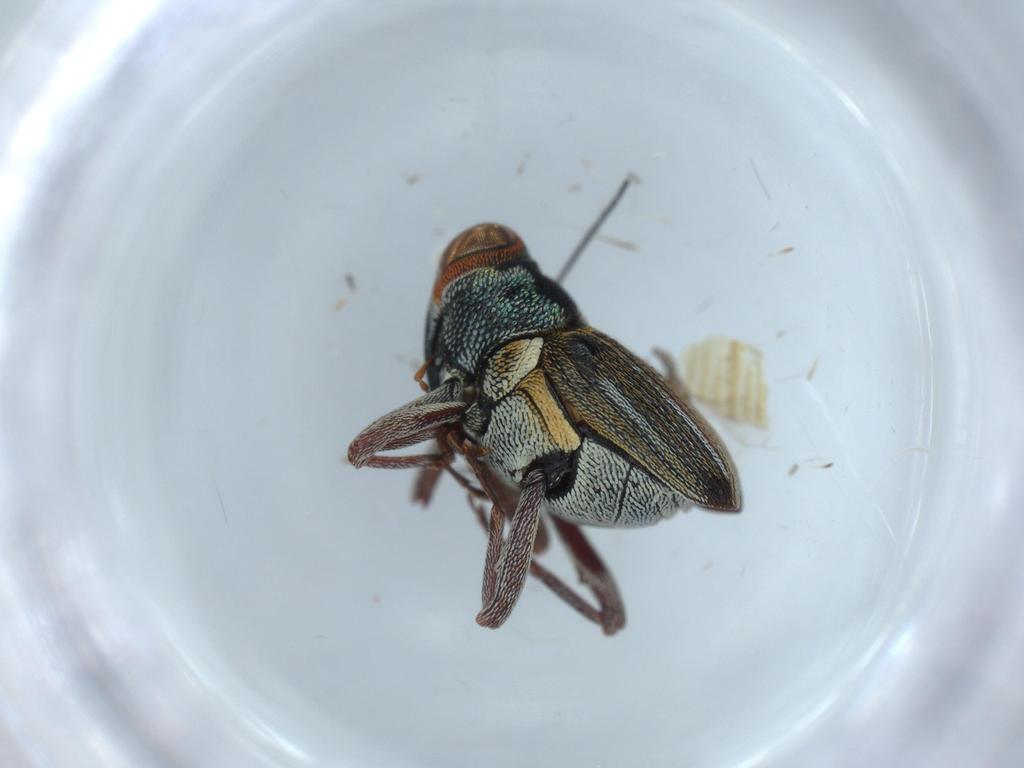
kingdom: Animalia
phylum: Arthropoda
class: Insecta
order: Coleoptera
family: Curculionidae
